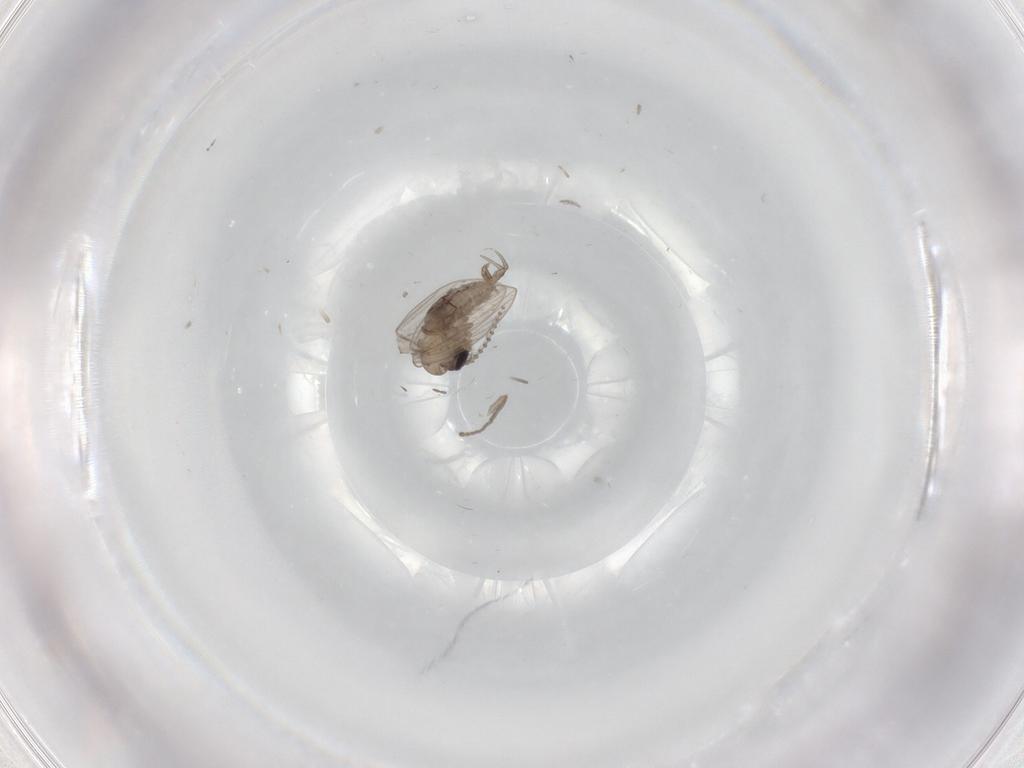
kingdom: Animalia
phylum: Arthropoda
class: Insecta
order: Diptera
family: Psychodidae
